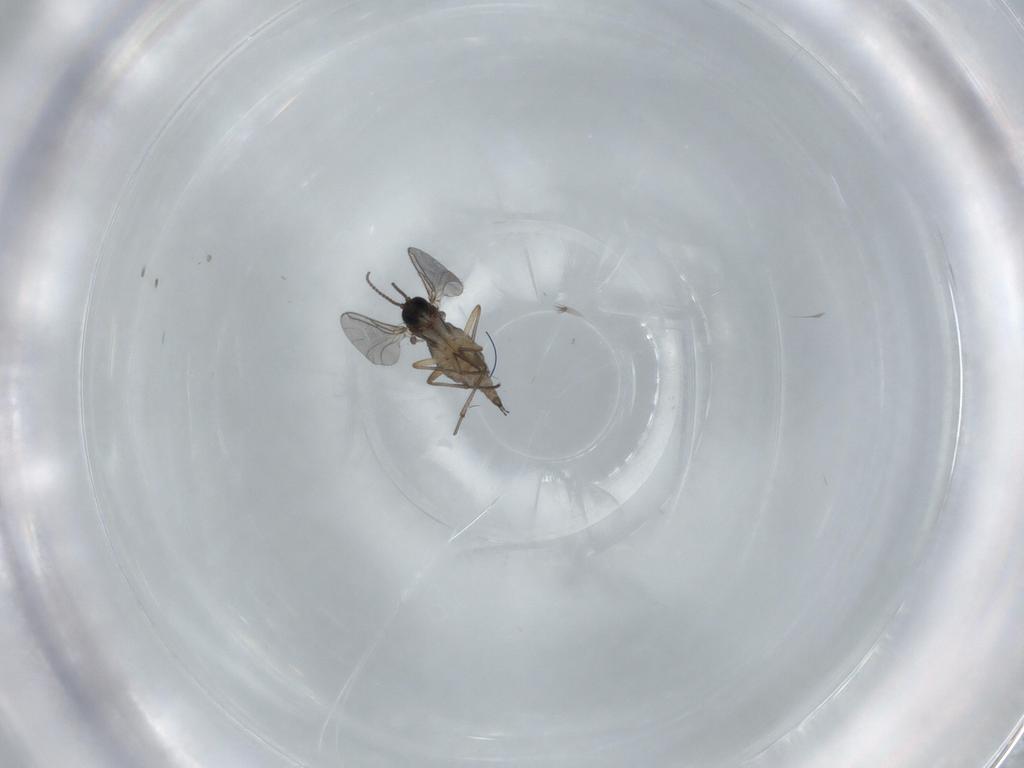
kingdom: Animalia
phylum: Arthropoda
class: Insecta
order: Diptera
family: Sciaridae
